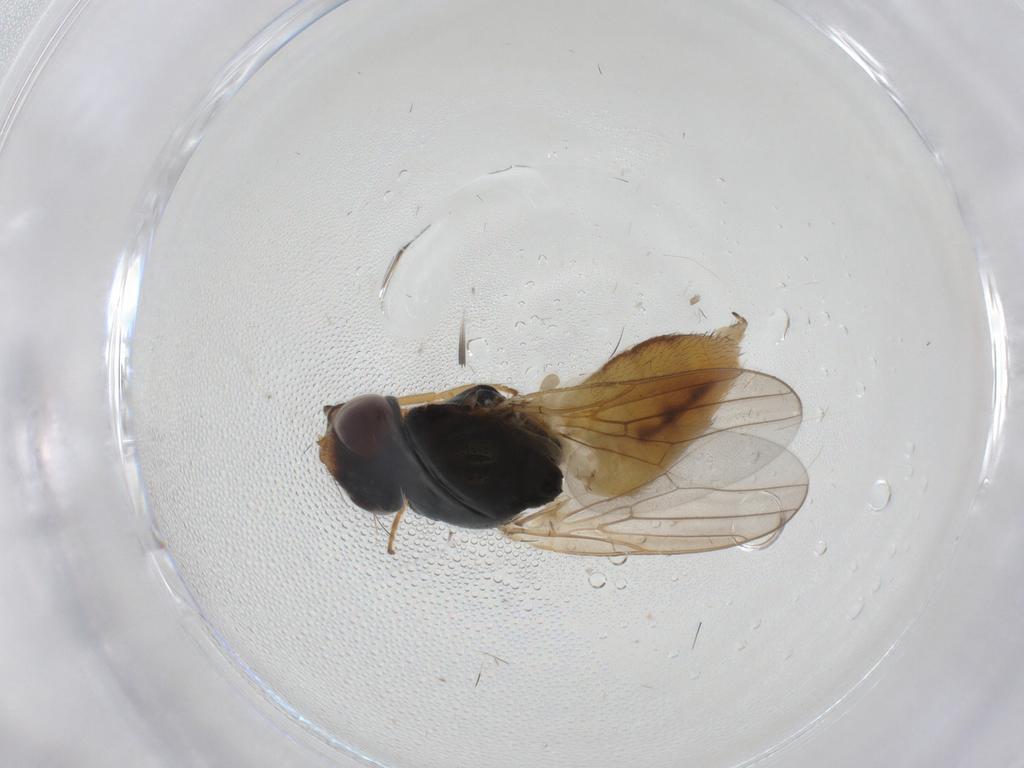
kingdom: Animalia
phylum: Arthropoda
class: Insecta
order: Diptera
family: Chloropidae
